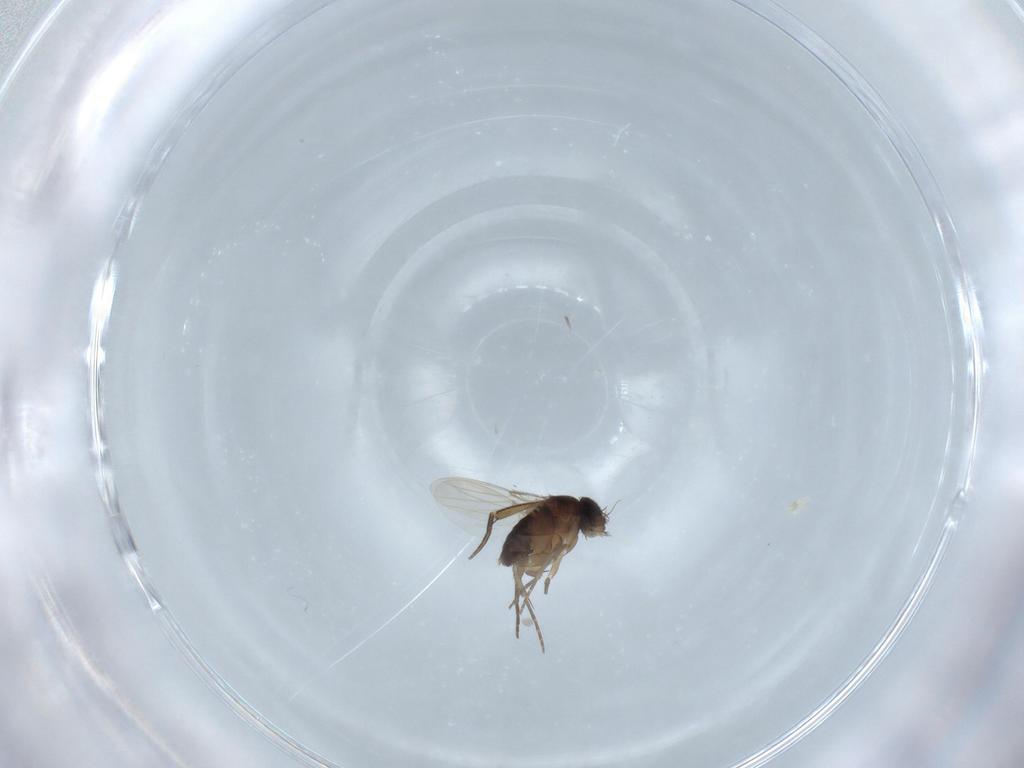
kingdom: Animalia
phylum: Arthropoda
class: Insecta
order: Diptera
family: Phoridae
